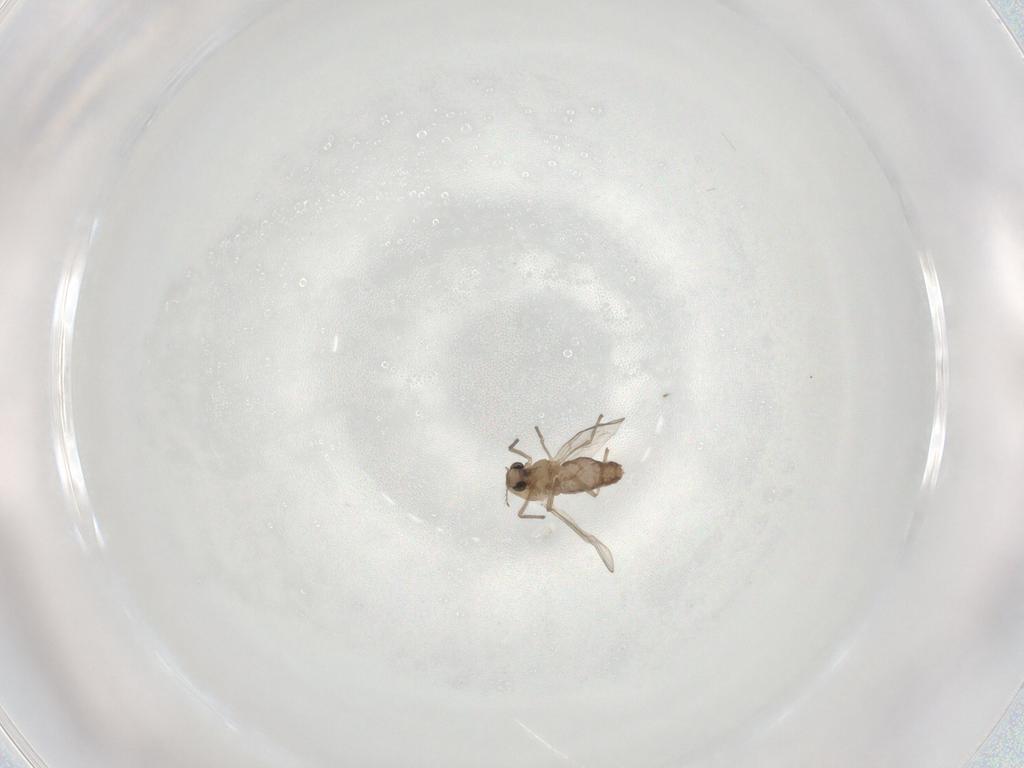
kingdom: Animalia
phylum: Arthropoda
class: Insecta
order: Diptera
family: Chironomidae
